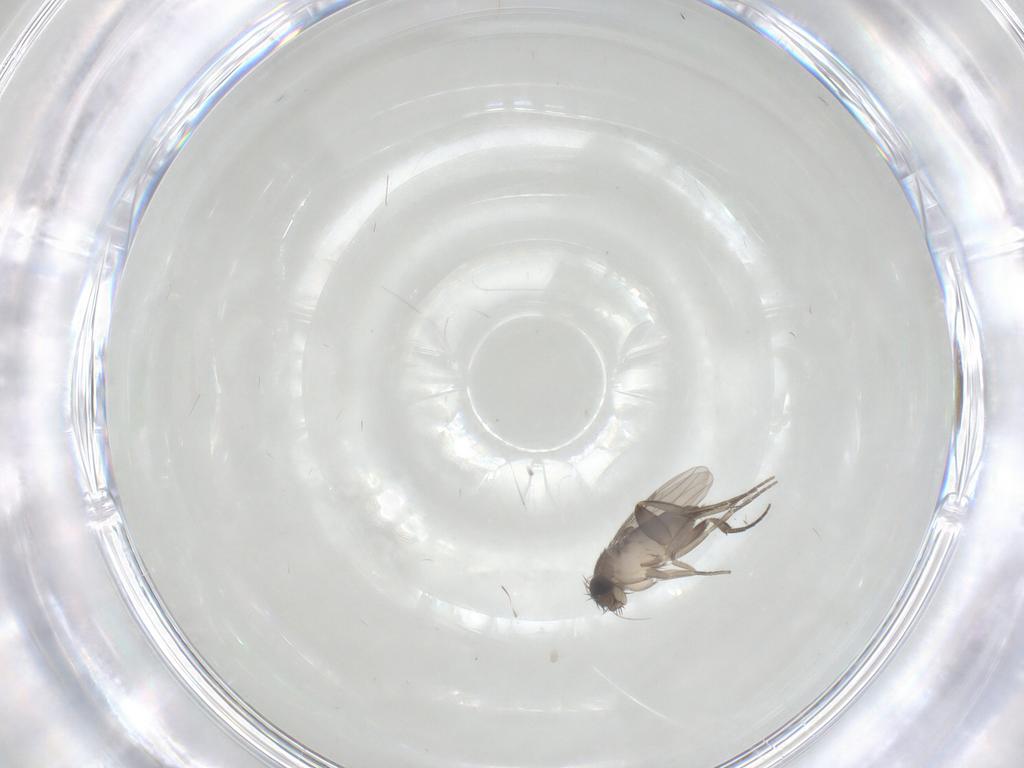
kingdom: Animalia
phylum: Arthropoda
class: Insecta
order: Diptera
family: Phoridae
